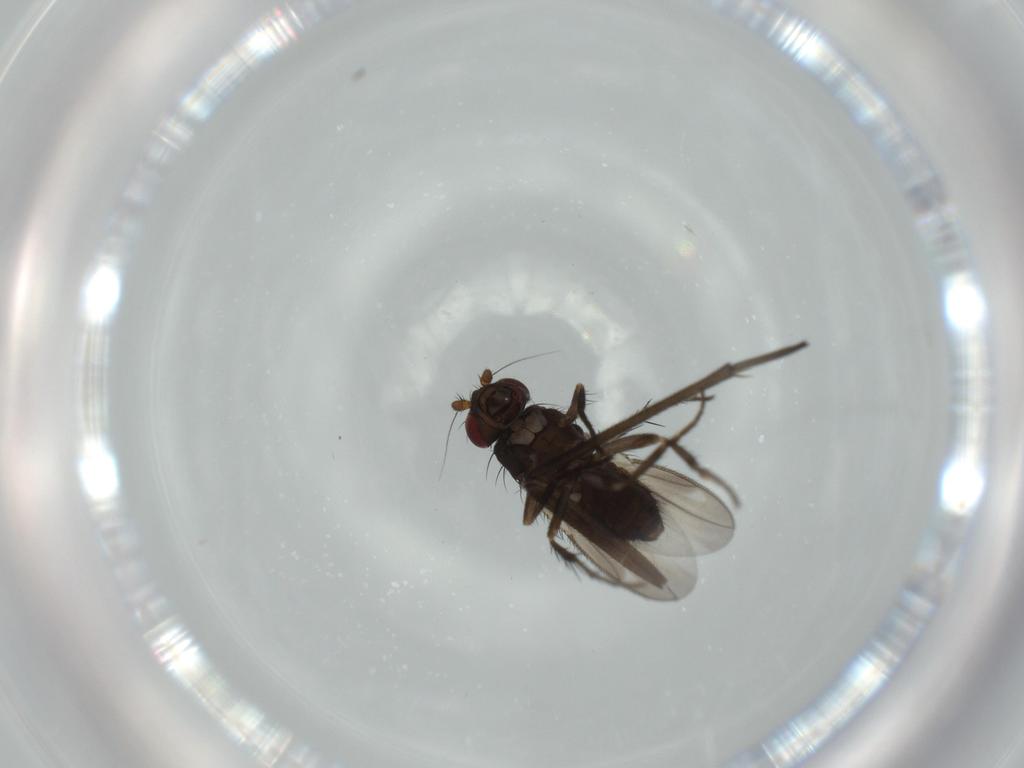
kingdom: Animalia
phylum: Arthropoda
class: Insecta
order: Diptera
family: Sciaridae
